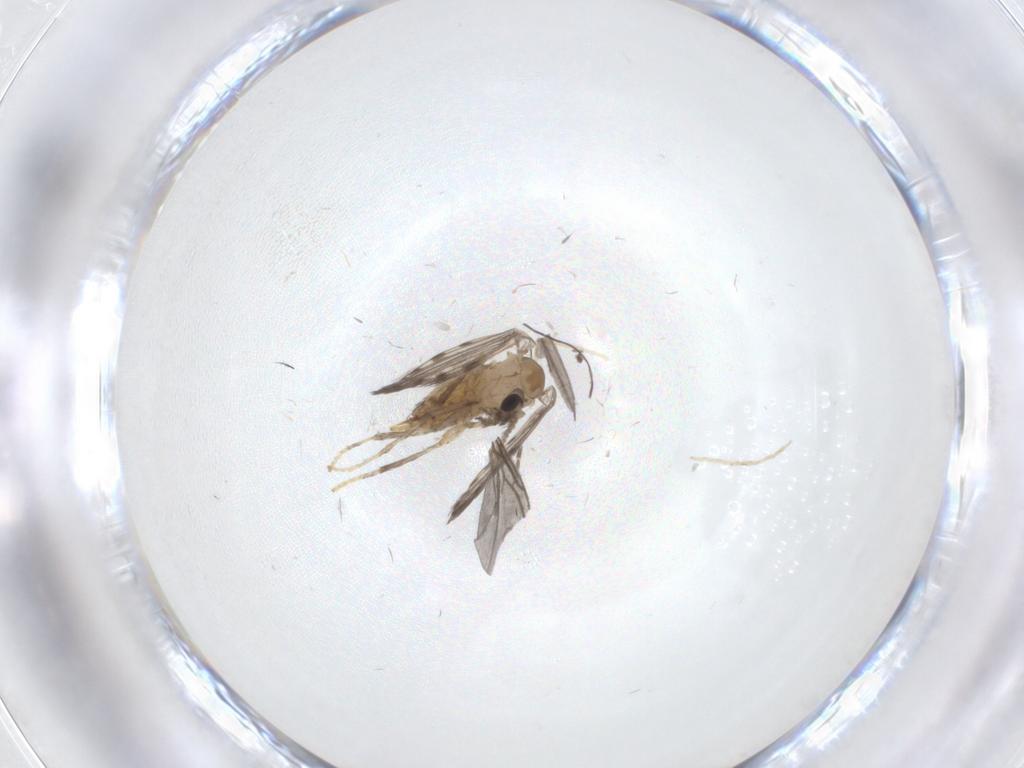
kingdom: Animalia
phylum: Arthropoda
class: Insecta
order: Diptera
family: Psychodidae
